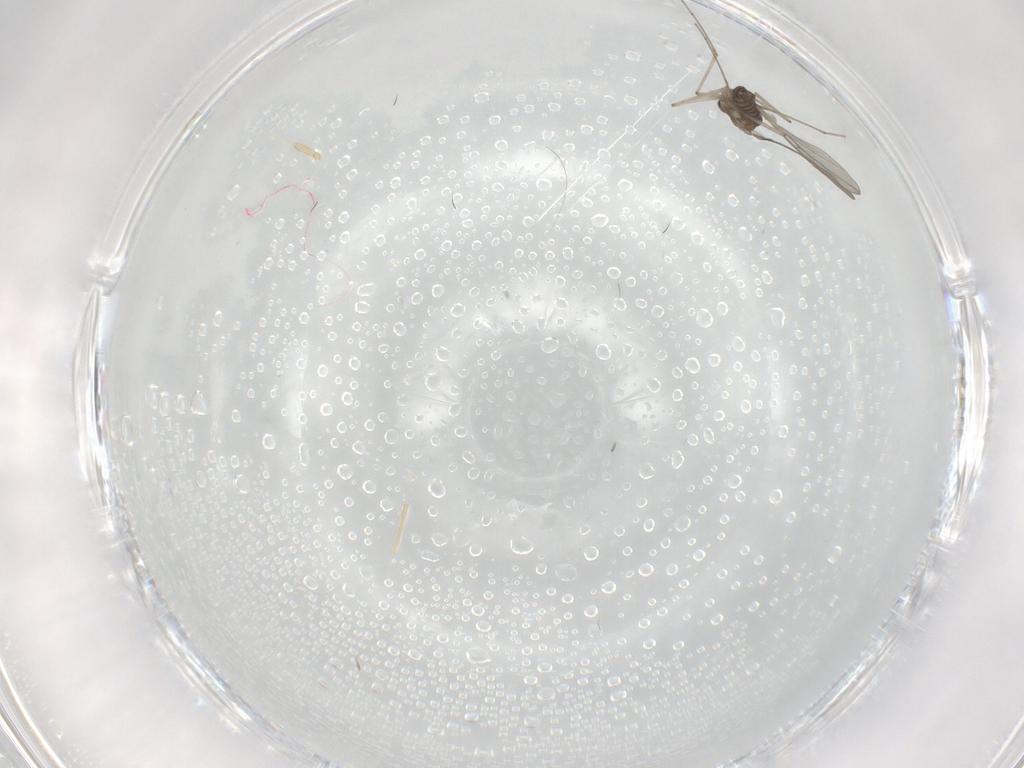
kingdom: Animalia
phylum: Arthropoda
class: Insecta
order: Diptera
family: Cecidomyiidae
